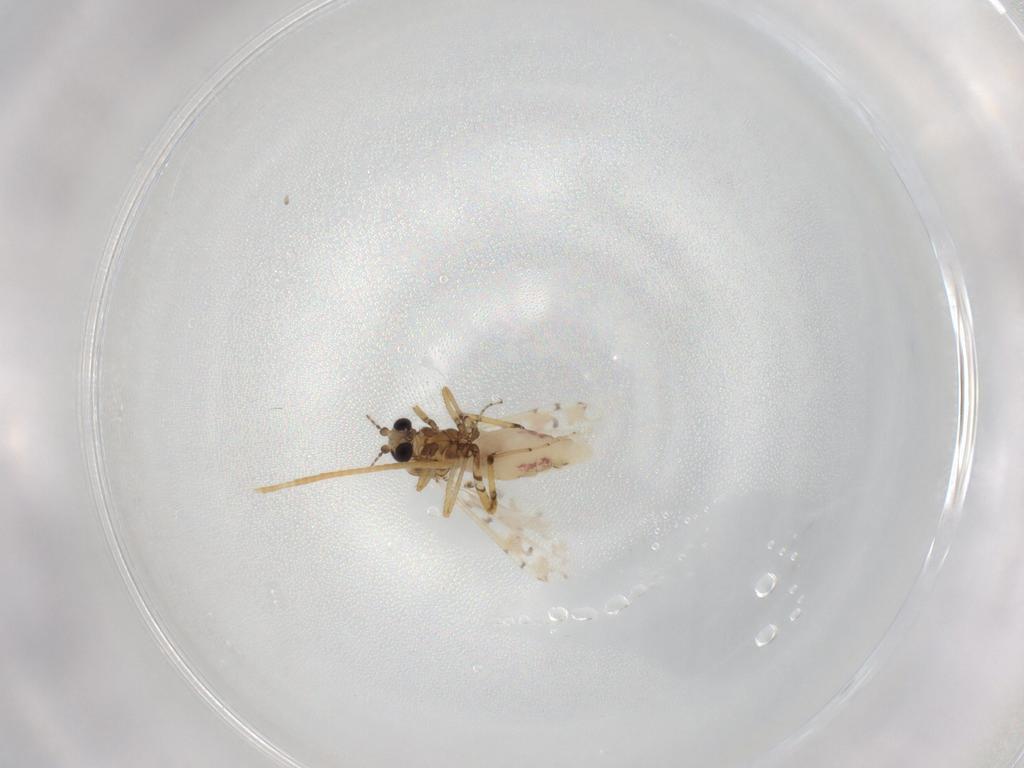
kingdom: Animalia
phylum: Arthropoda
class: Insecta
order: Diptera
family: Ceratopogonidae
